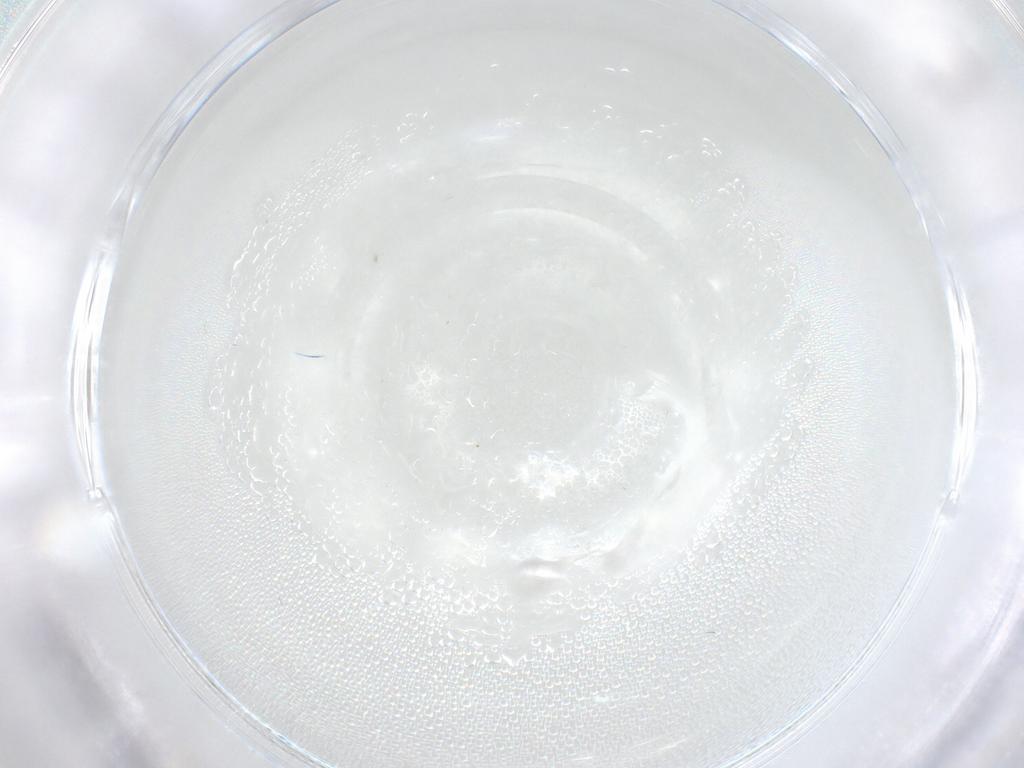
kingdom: Animalia
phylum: Arthropoda
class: Insecta
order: Diptera
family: Cecidomyiidae
